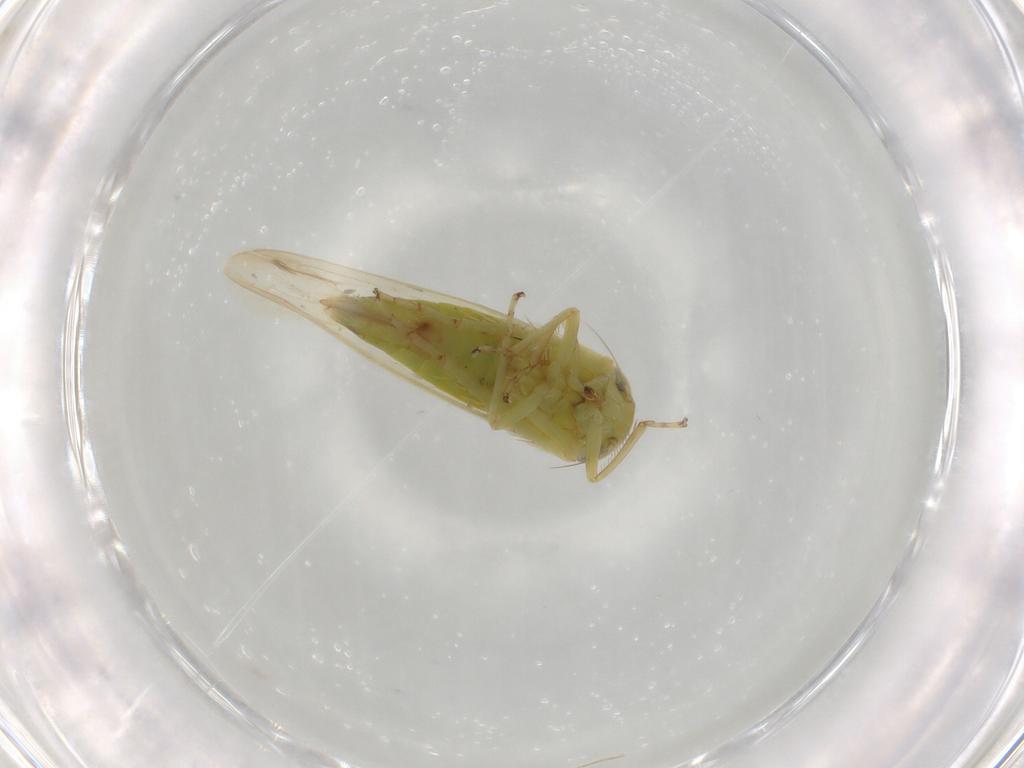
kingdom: Animalia
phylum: Arthropoda
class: Insecta
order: Hemiptera
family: Cicadellidae
